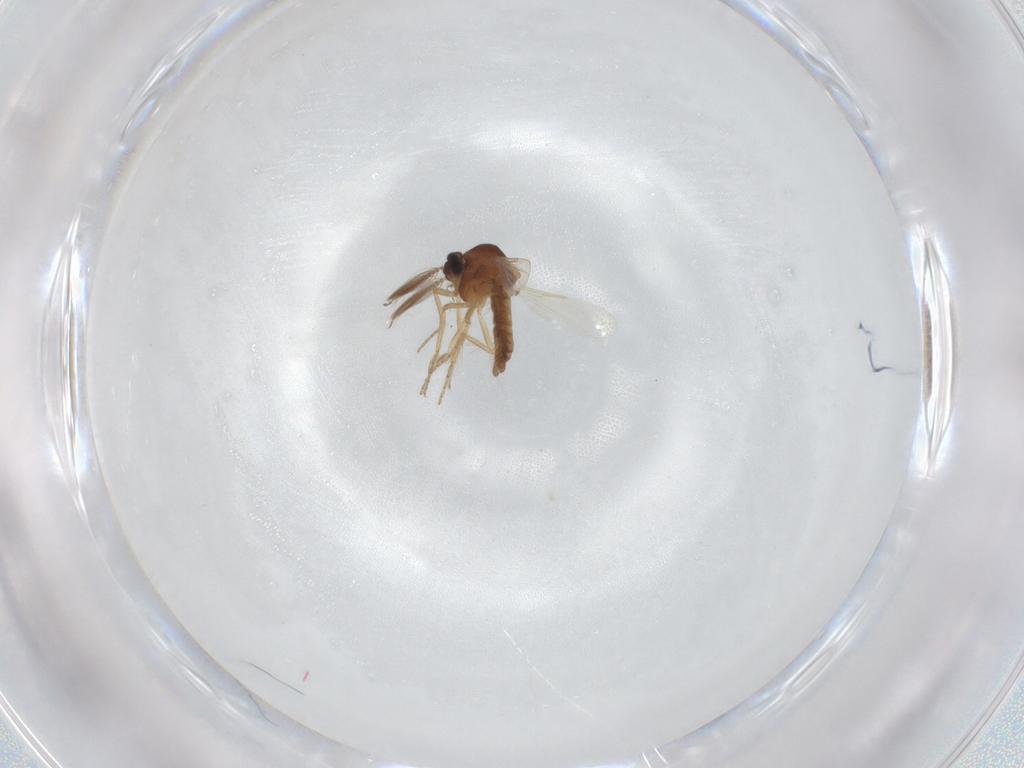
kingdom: Animalia
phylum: Arthropoda
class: Insecta
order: Diptera
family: Ceratopogonidae
